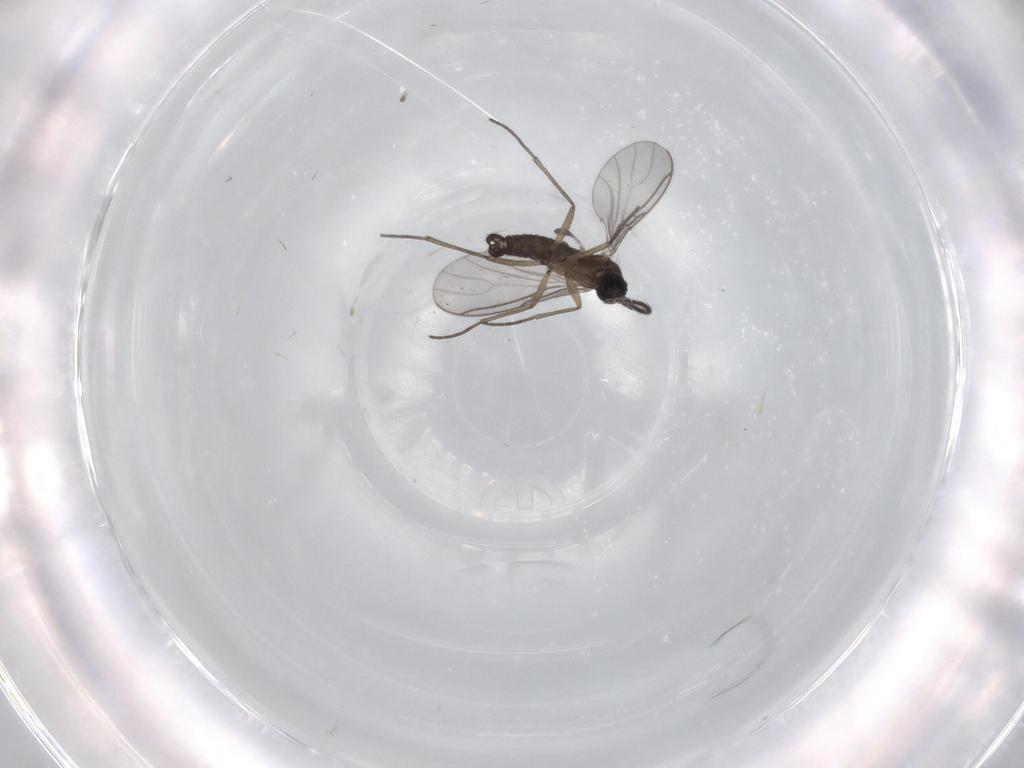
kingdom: Animalia
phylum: Arthropoda
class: Insecta
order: Diptera
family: Sciaridae
